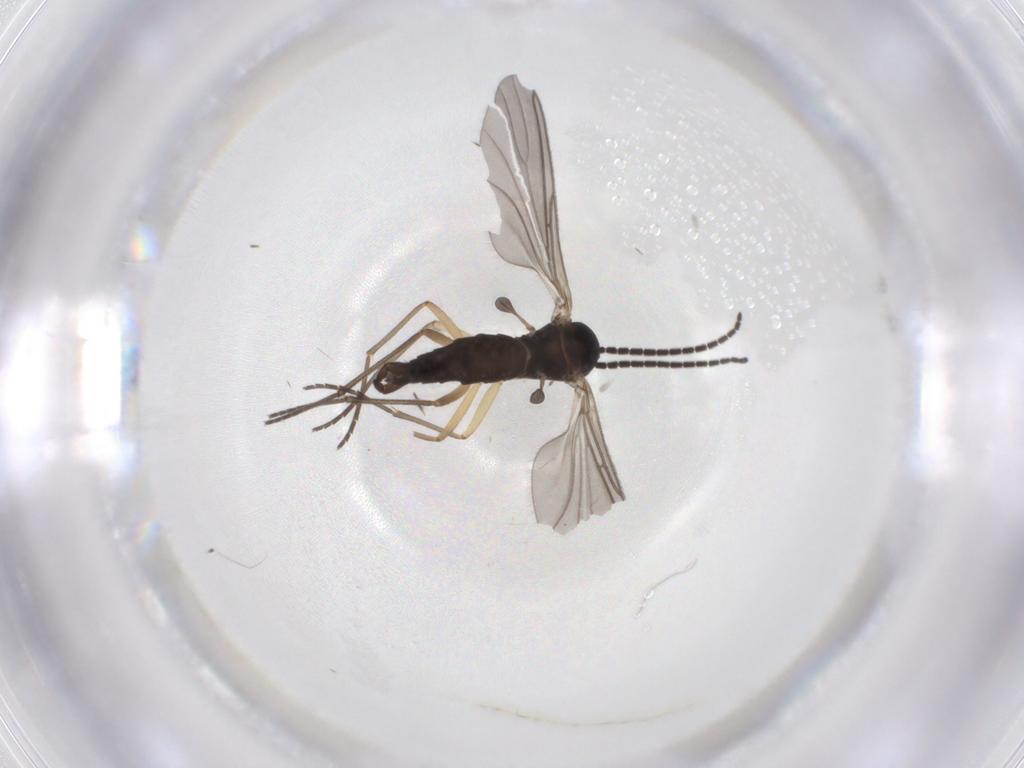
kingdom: Animalia
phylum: Arthropoda
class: Insecta
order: Diptera
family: Sciaridae
